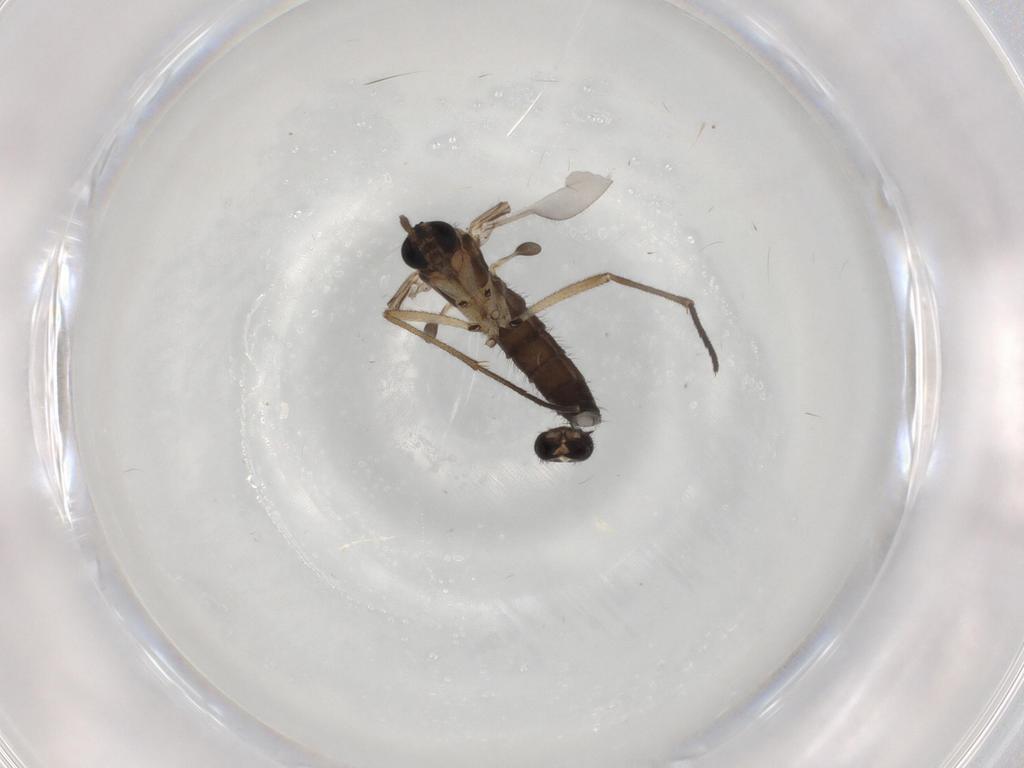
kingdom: Animalia
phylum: Arthropoda
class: Insecta
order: Diptera
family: Sciaridae
